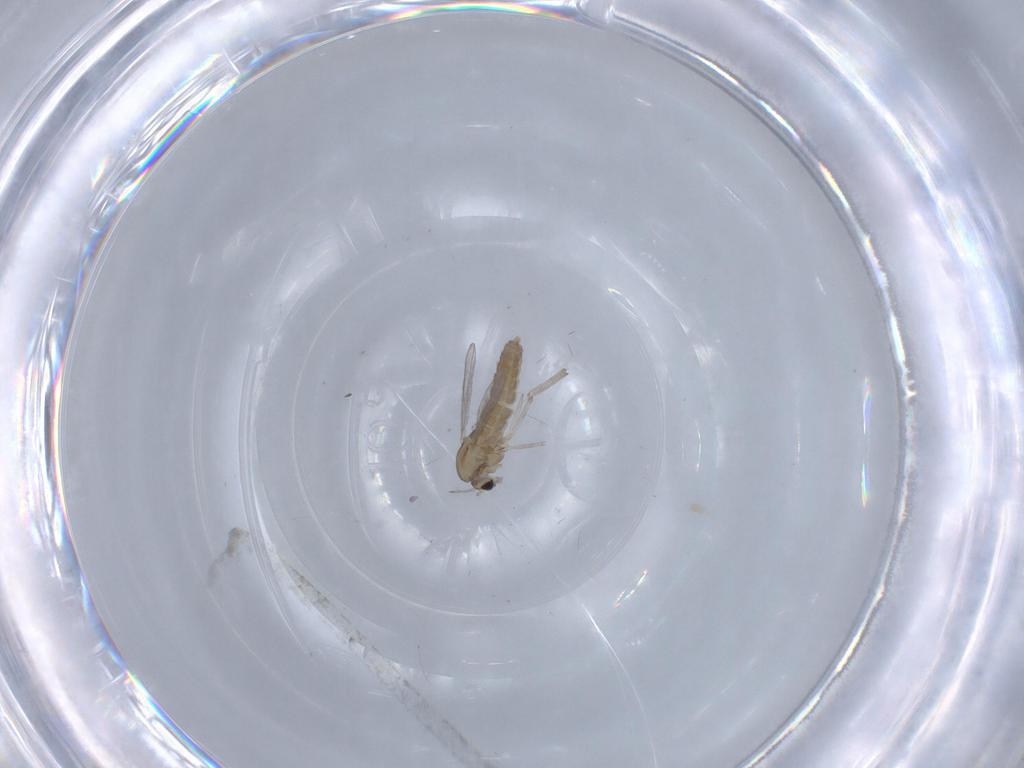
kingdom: Animalia
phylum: Arthropoda
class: Insecta
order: Diptera
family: Chironomidae
